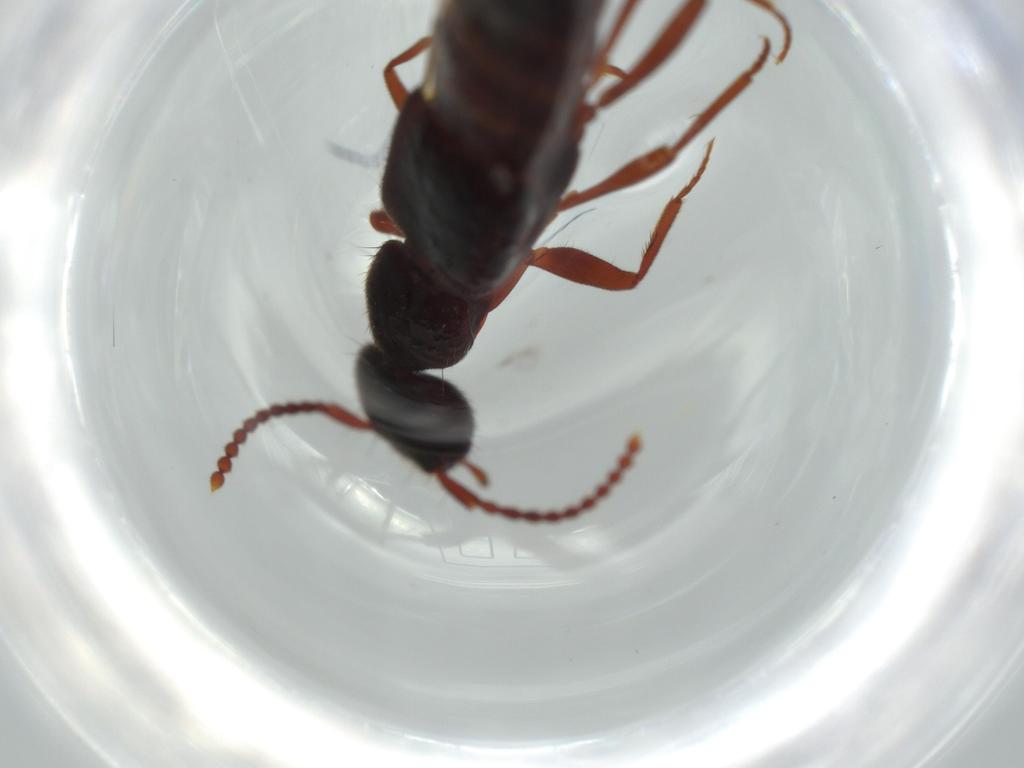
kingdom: Animalia
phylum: Arthropoda
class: Insecta
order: Coleoptera
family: Staphylinidae
